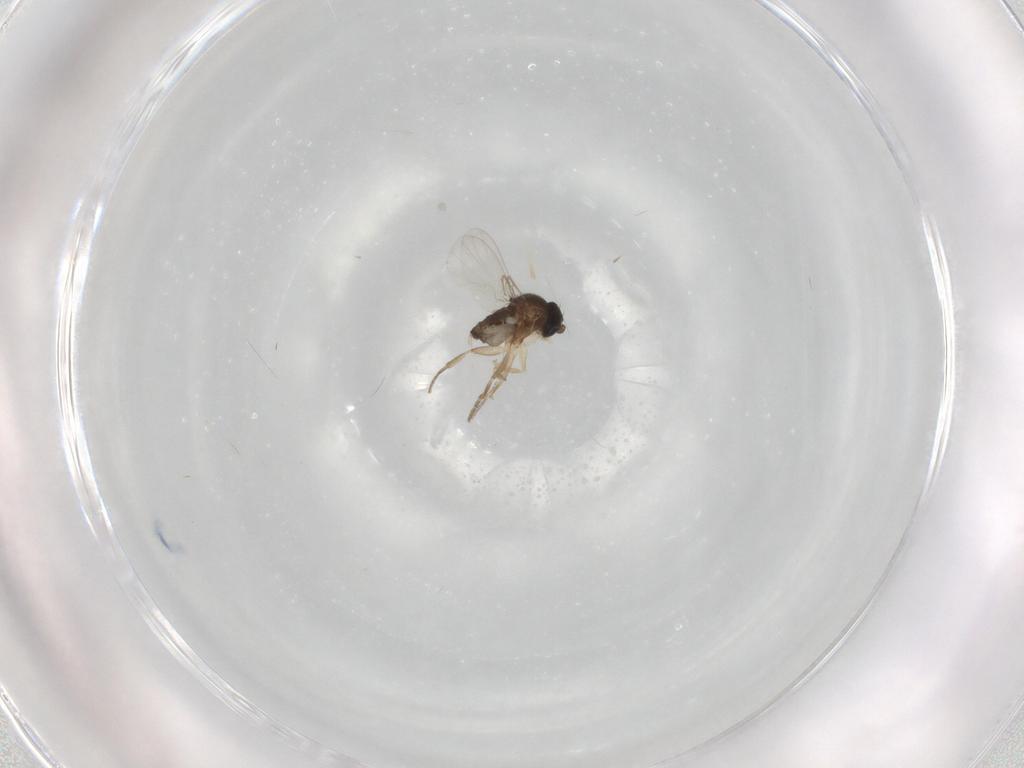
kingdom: Animalia
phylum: Arthropoda
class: Insecta
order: Diptera
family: Phoridae
